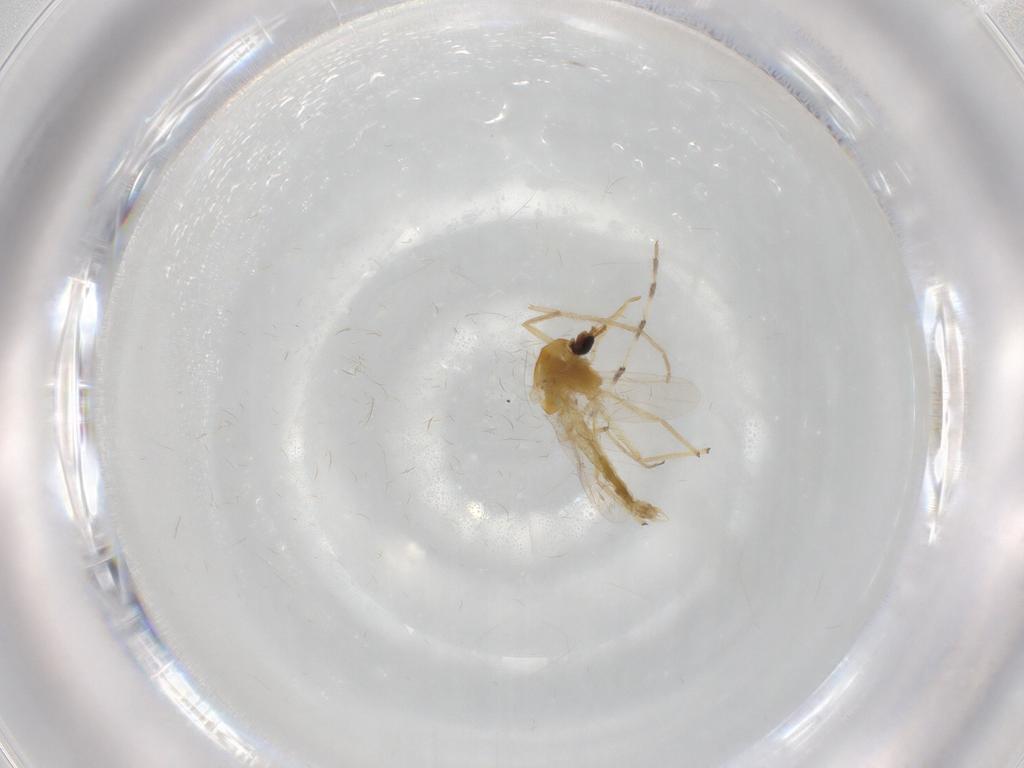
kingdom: Animalia
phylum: Arthropoda
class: Insecta
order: Diptera
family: Chironomidae
